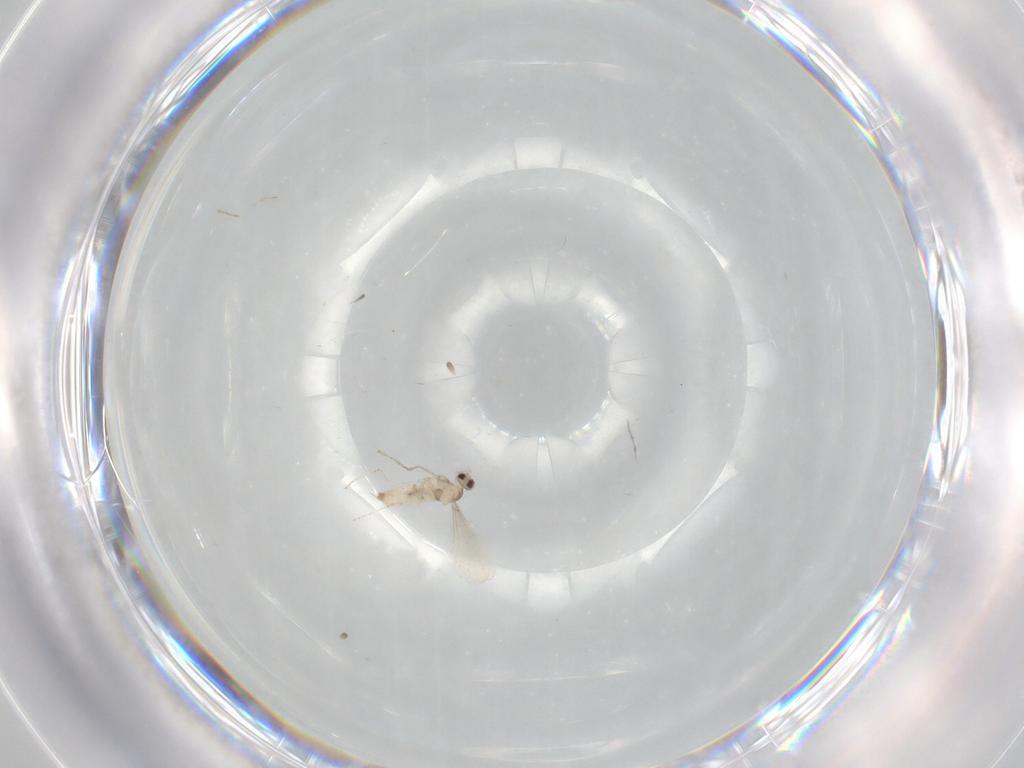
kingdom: Animalia
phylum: Arthropoda
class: Insecta
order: Diptera
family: Cecidomyiidae
